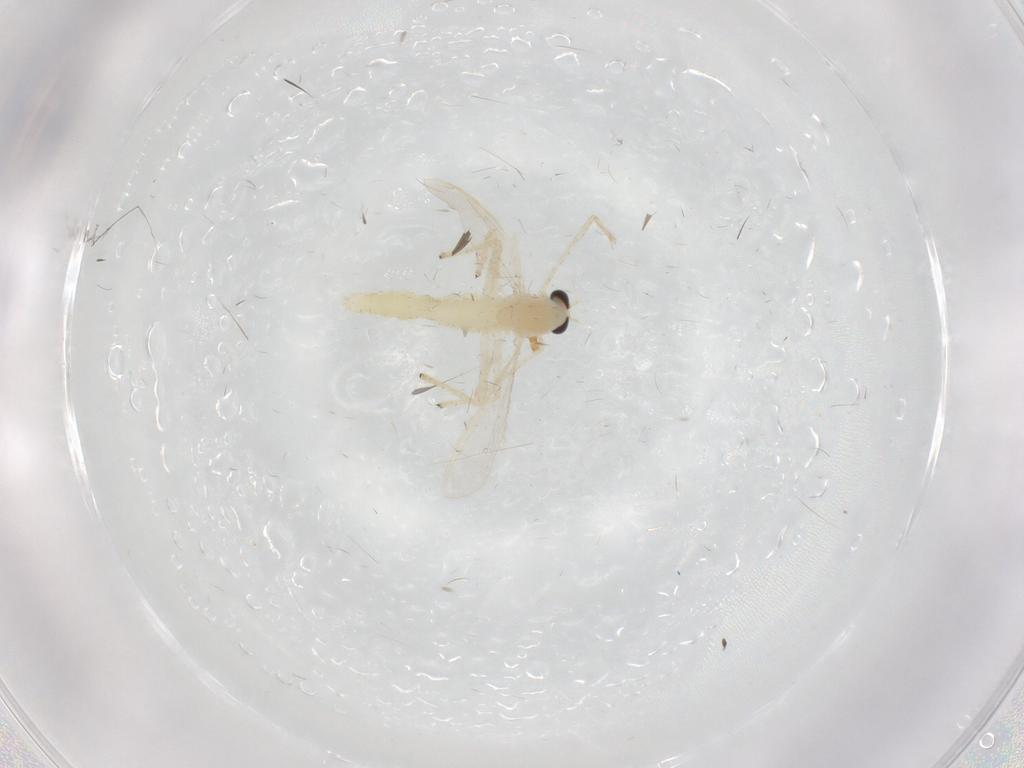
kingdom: Animalia
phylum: Arthropoda
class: Insecta
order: Diptera
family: Chironomidae
